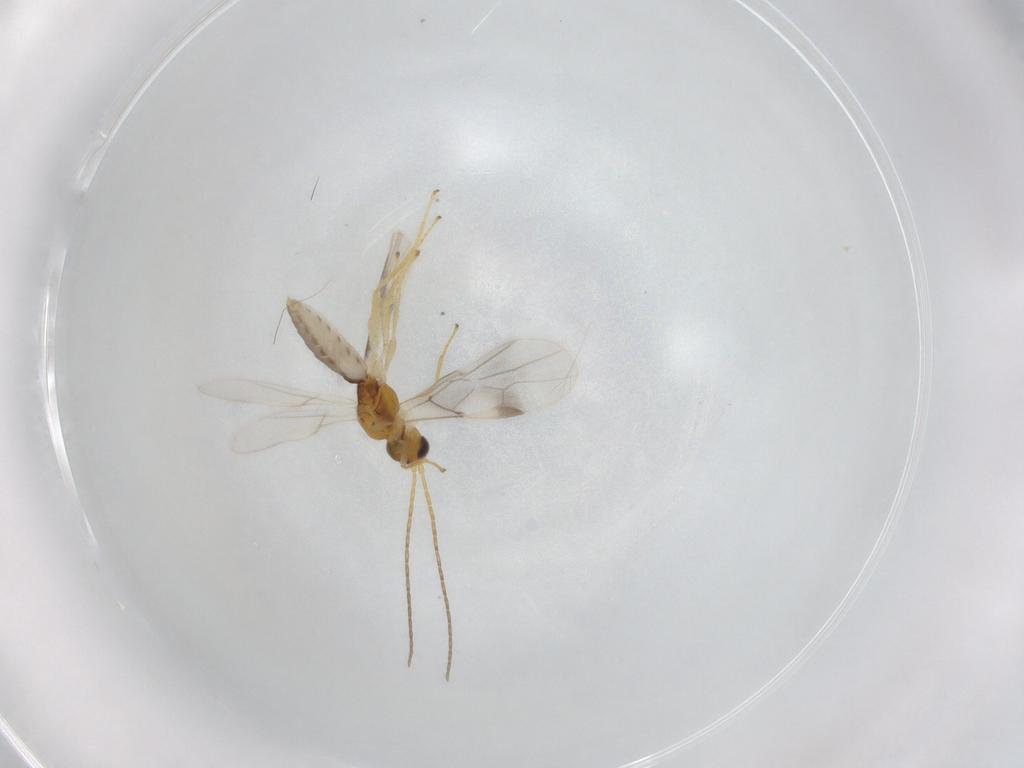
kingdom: Animalia
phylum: Arthropoda
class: Insecta
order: Hymenoptera
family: Braconidae
